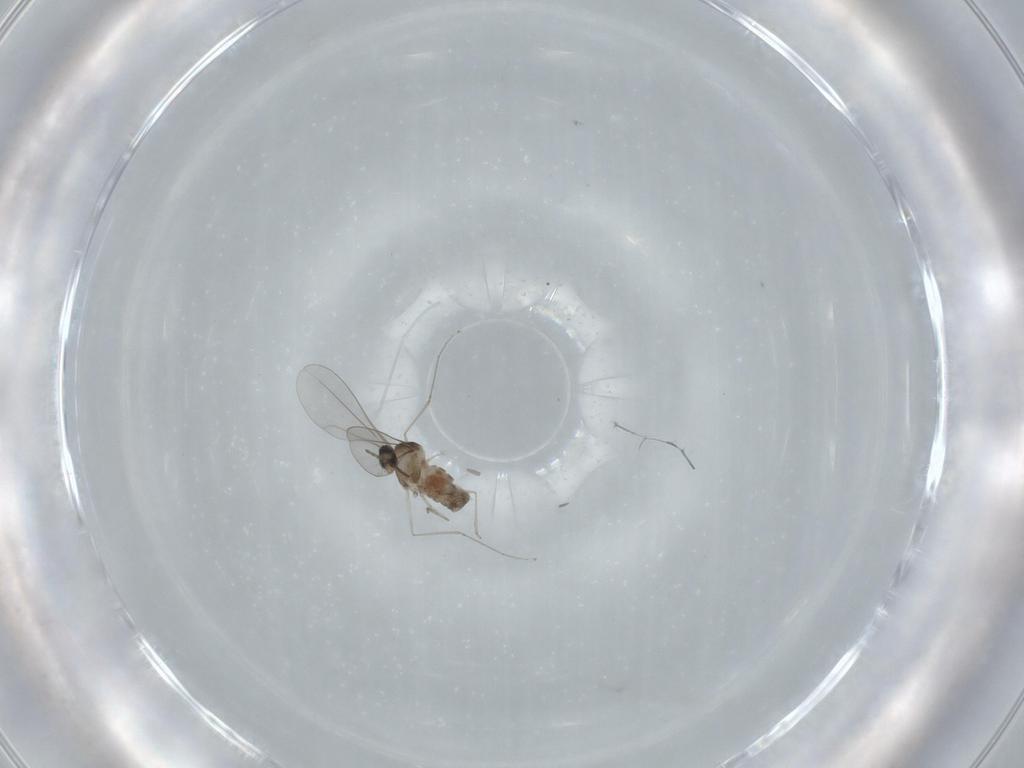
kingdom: Animalia
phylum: Arthropoda
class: Insecta
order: Diptera
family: Cecidomyiidae
